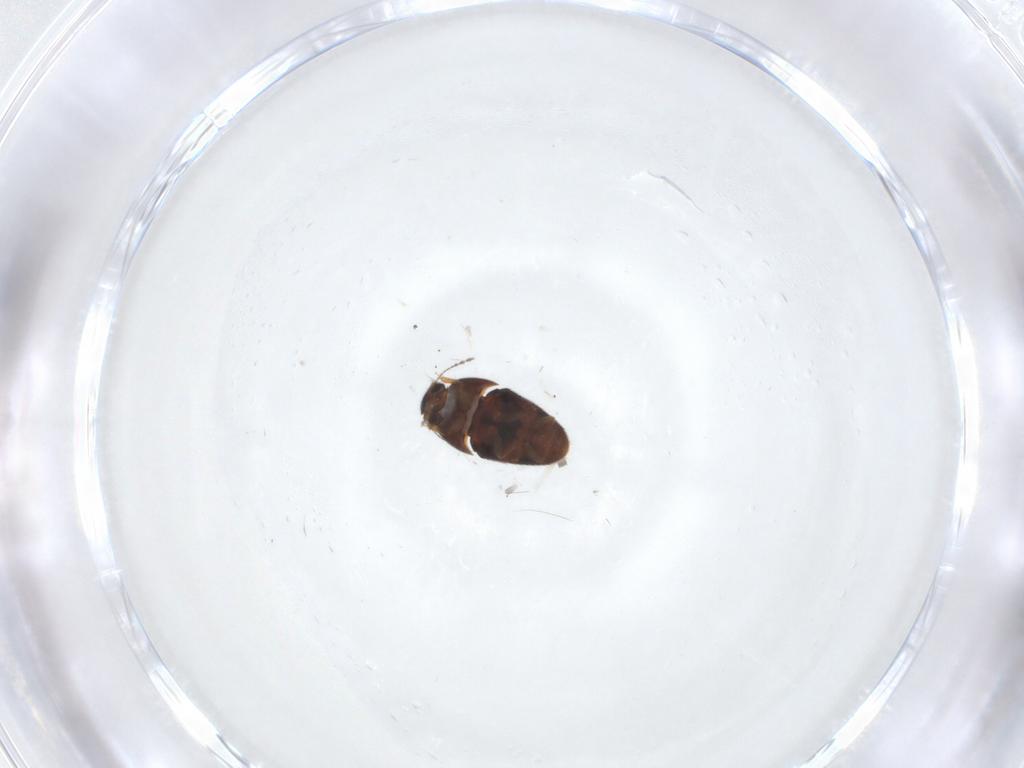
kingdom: Animalia
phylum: Arthropoda
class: Insecta
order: Coleoptera
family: Ptiliidae
